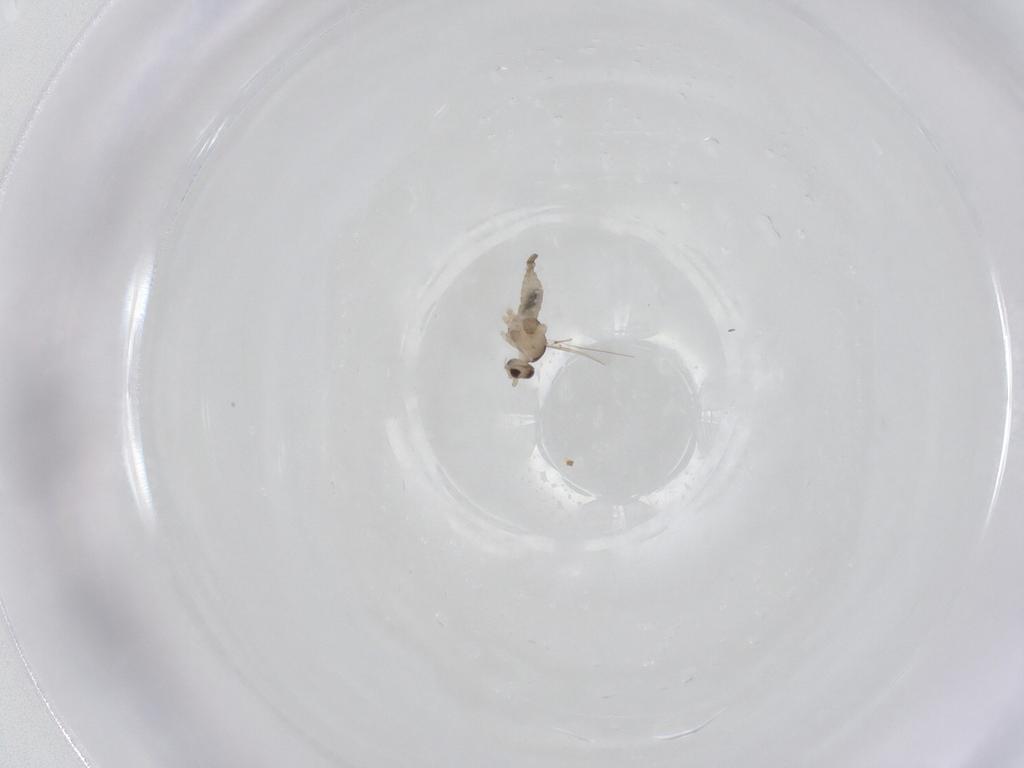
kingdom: Animalia
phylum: Arthropoda
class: Insecta
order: Diptera
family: Cecidomyiidae
